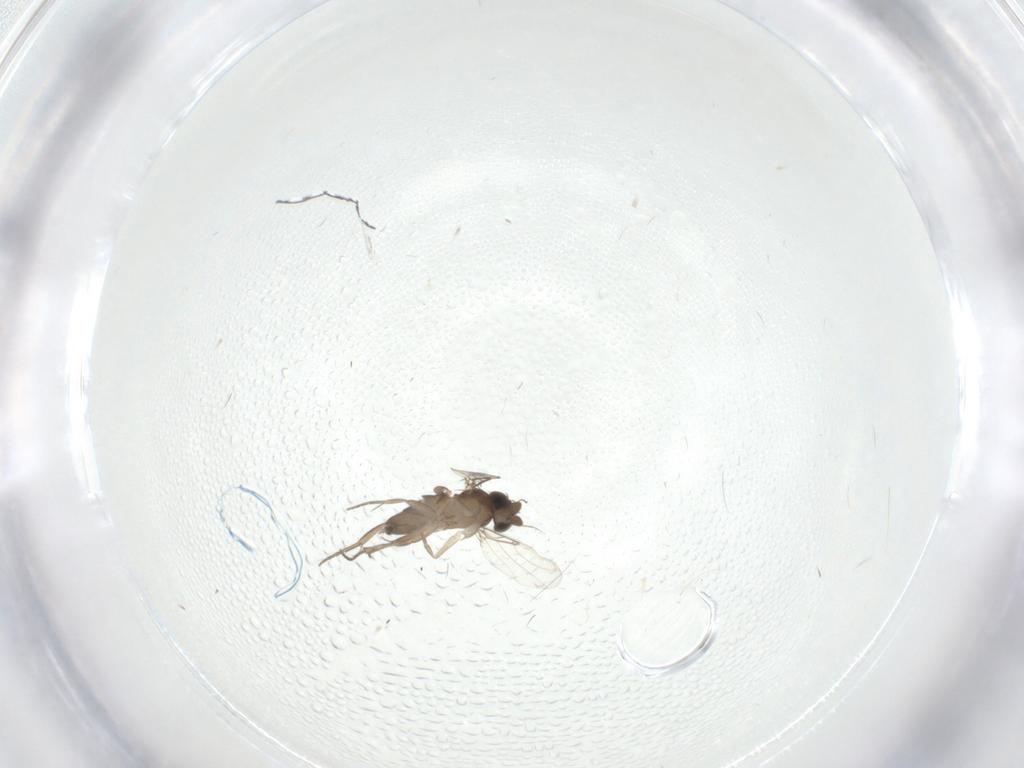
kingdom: Animalia
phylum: Arthropoda
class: Insecta
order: Diptera
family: Phoridae
